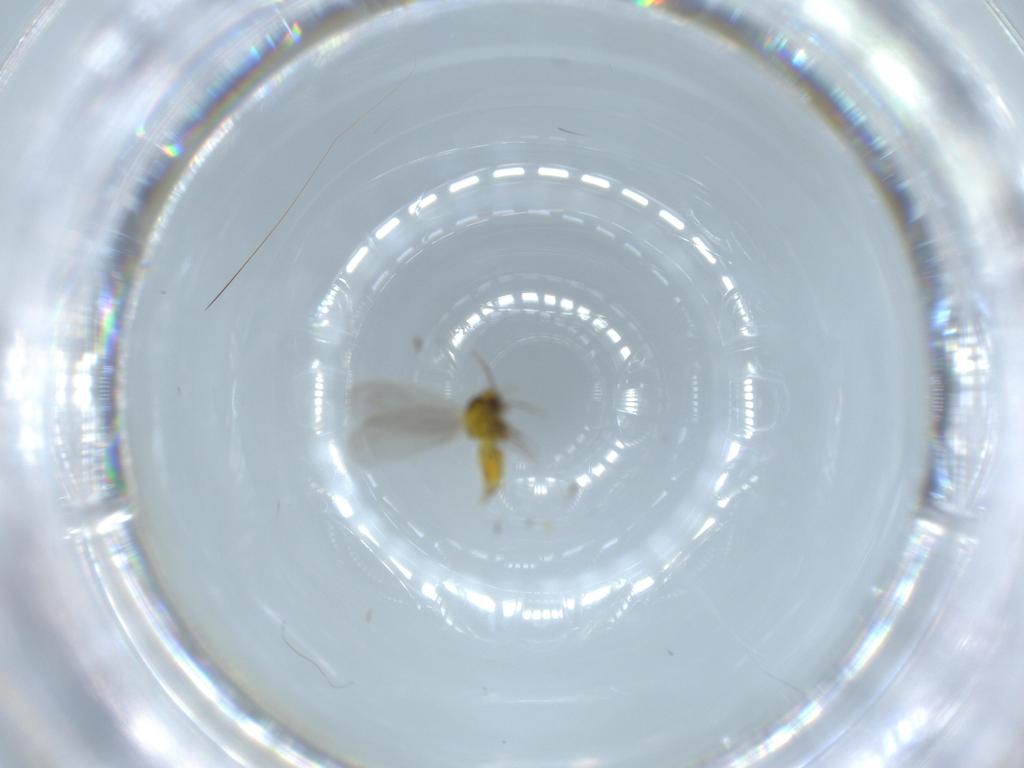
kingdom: Animalia
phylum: Arthropoda
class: Insecta
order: Hemiptera
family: Aleyrodidae
